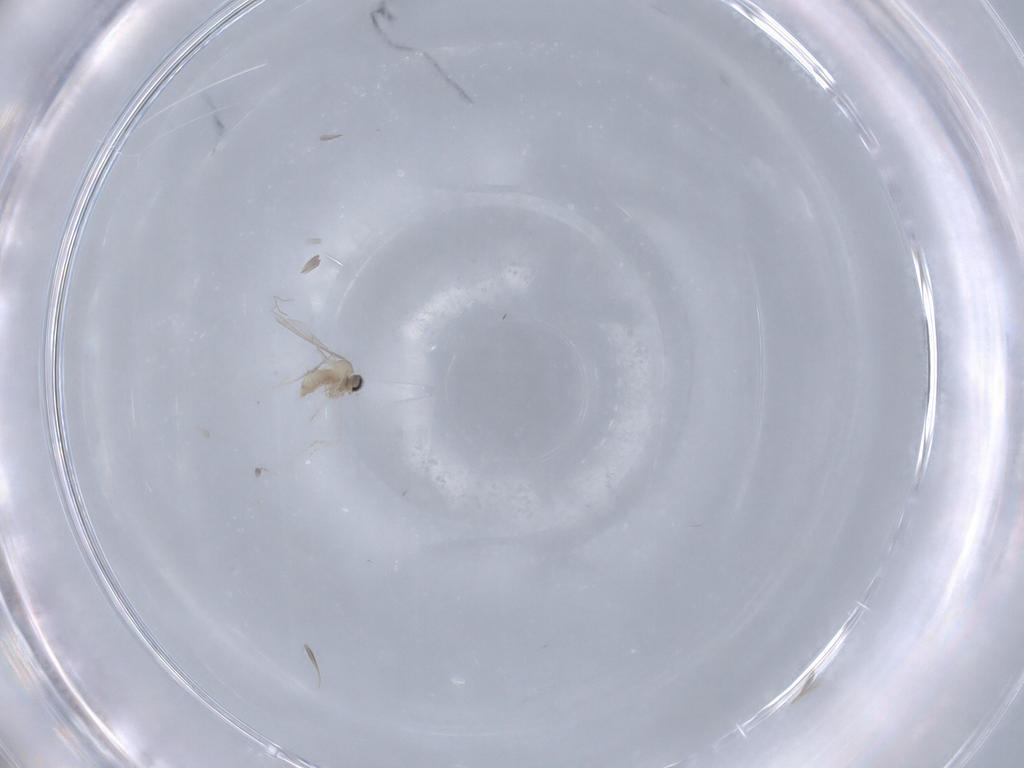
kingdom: Animalia
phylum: Arthropoda
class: Insecta
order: Diptera
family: Cecidomyiidae
